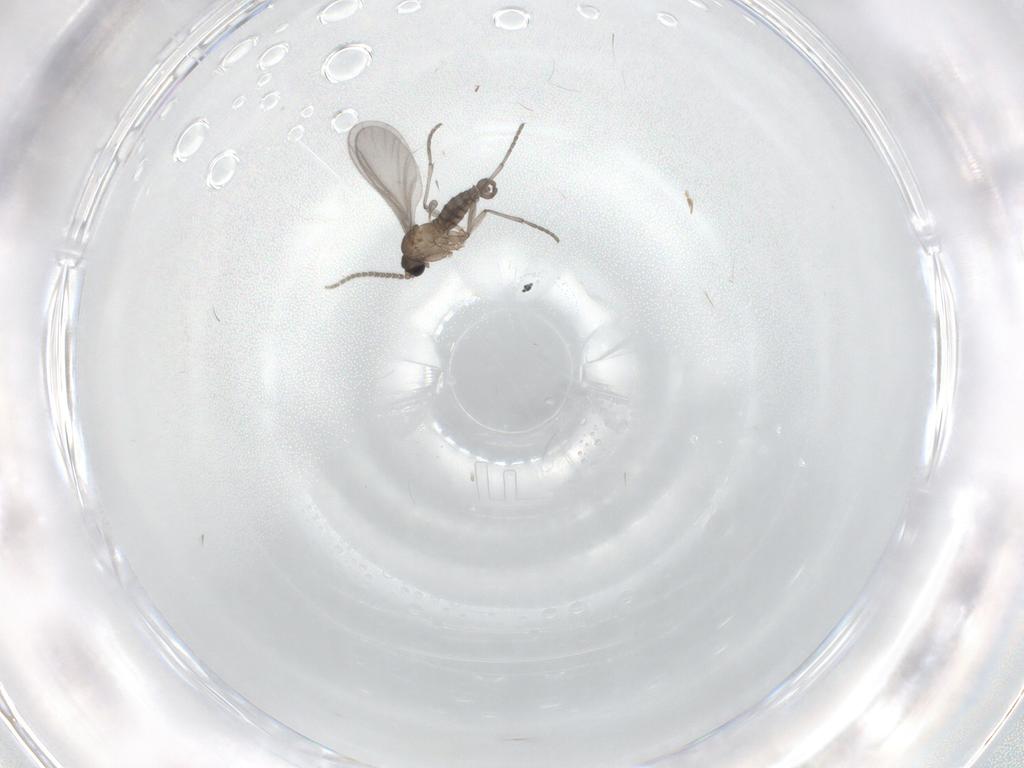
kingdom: Animalia
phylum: Arthropoda
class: Insecta
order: Diptera
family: Sciaridae
